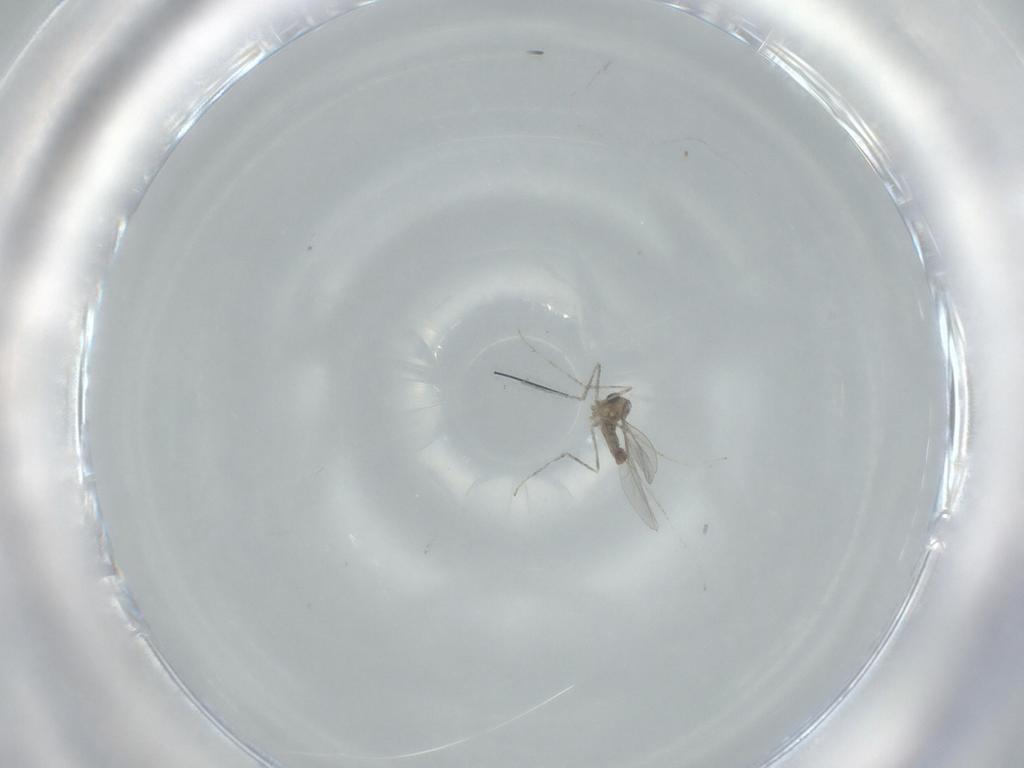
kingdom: Animalia
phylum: Arthropoda
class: Insecta
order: Diptera
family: Cecidomyiidae
